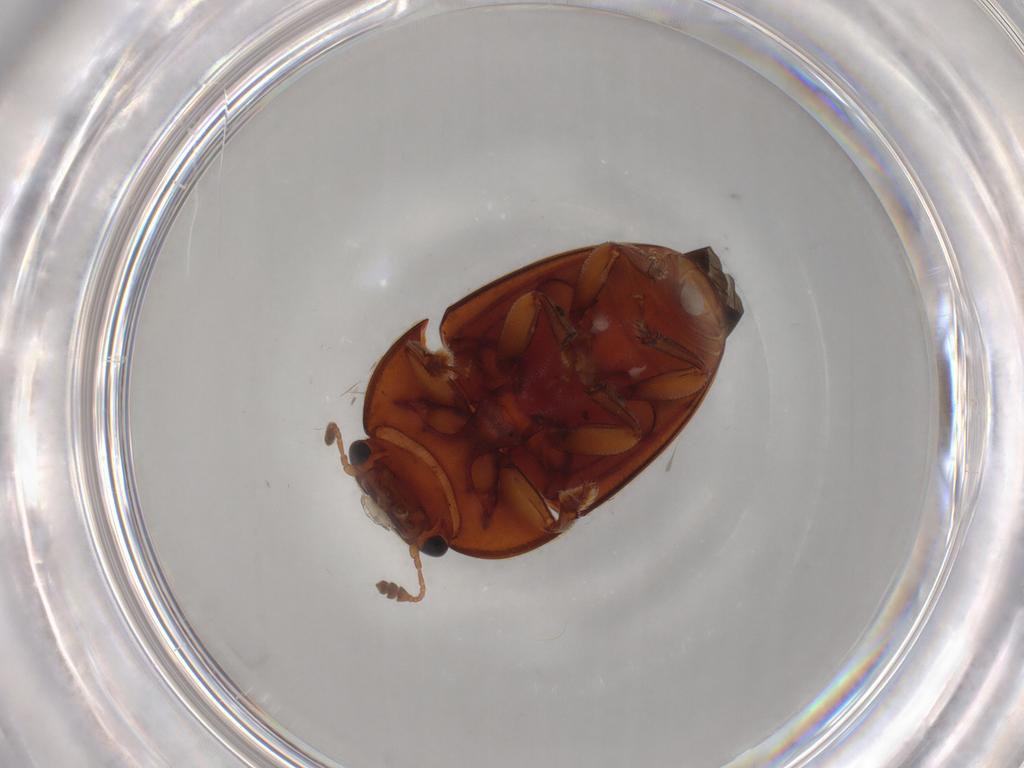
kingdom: Animalia
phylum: Arthropoda
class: Insecta
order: Coleoptera
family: Nitidulidae
